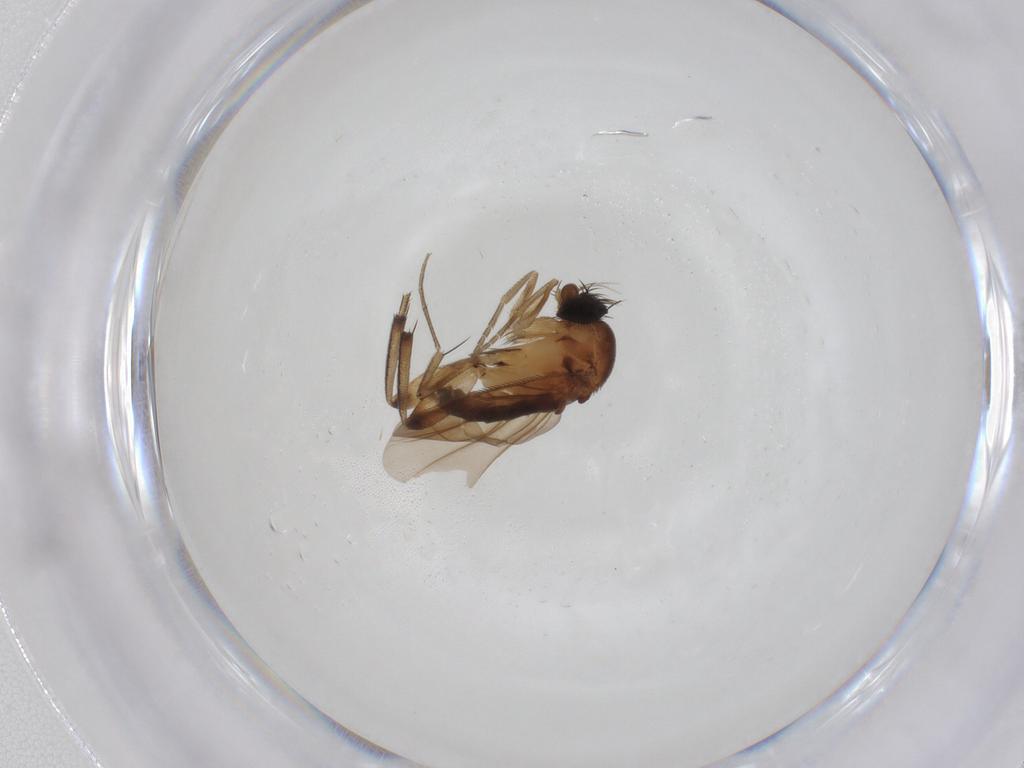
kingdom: Animalia
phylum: Arthropoda
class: Insecta
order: Diptera
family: Phoridae
